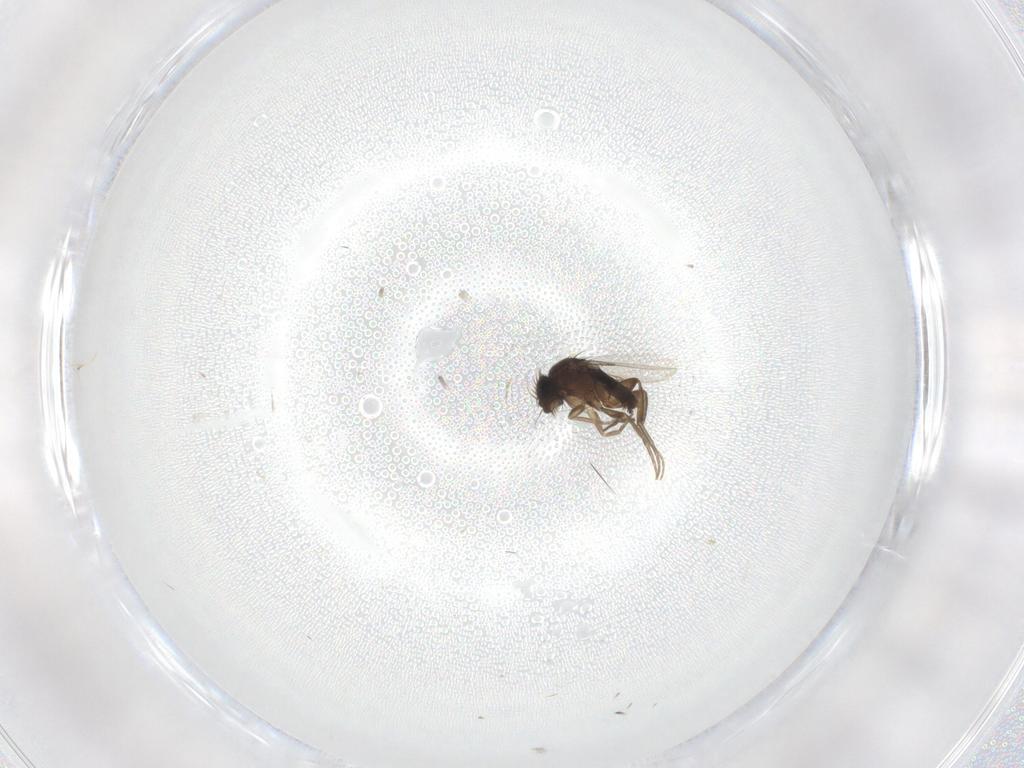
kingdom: Animalia
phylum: Arthropoda
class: Insecta
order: Diptera
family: Phoridae
